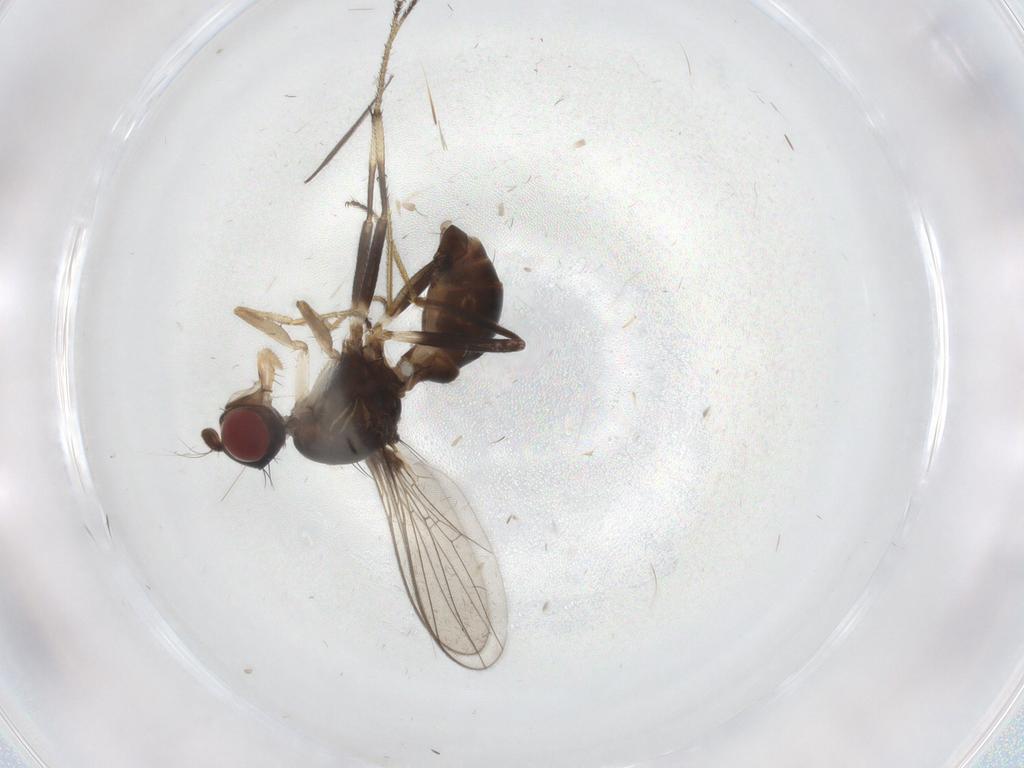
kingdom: Animalia
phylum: Arthropoda
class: Insecta
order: Diptera
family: Sepsidae
